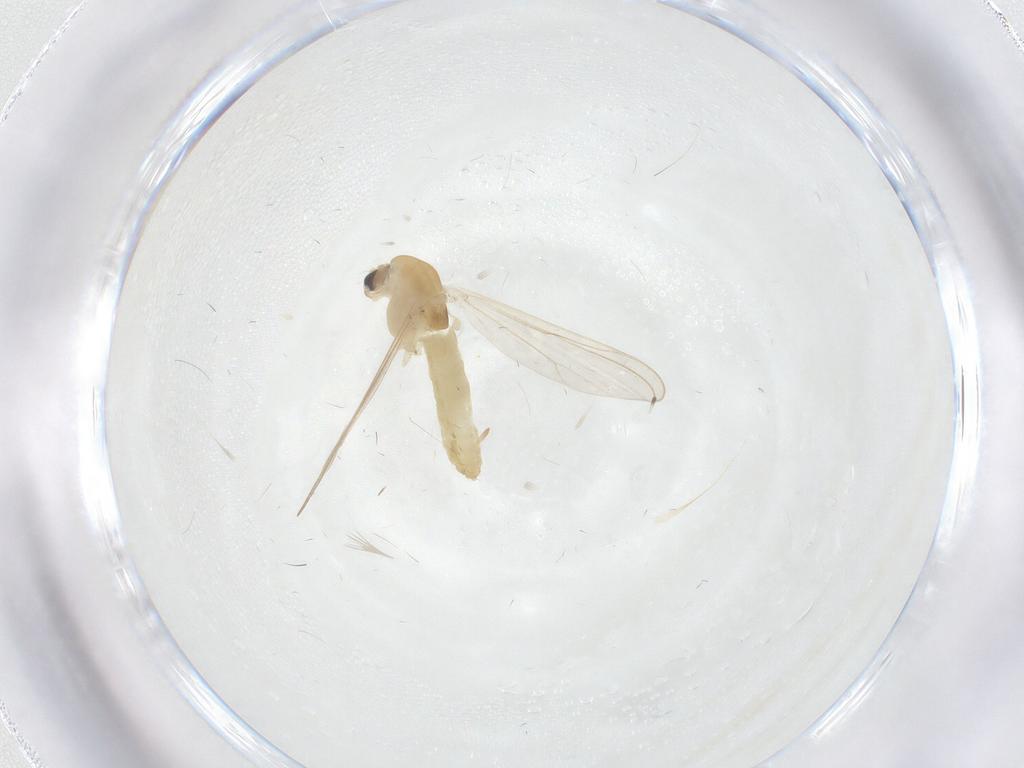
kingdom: Animalia
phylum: Arthropoda
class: Insecta
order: Diptera
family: Chironomidae
